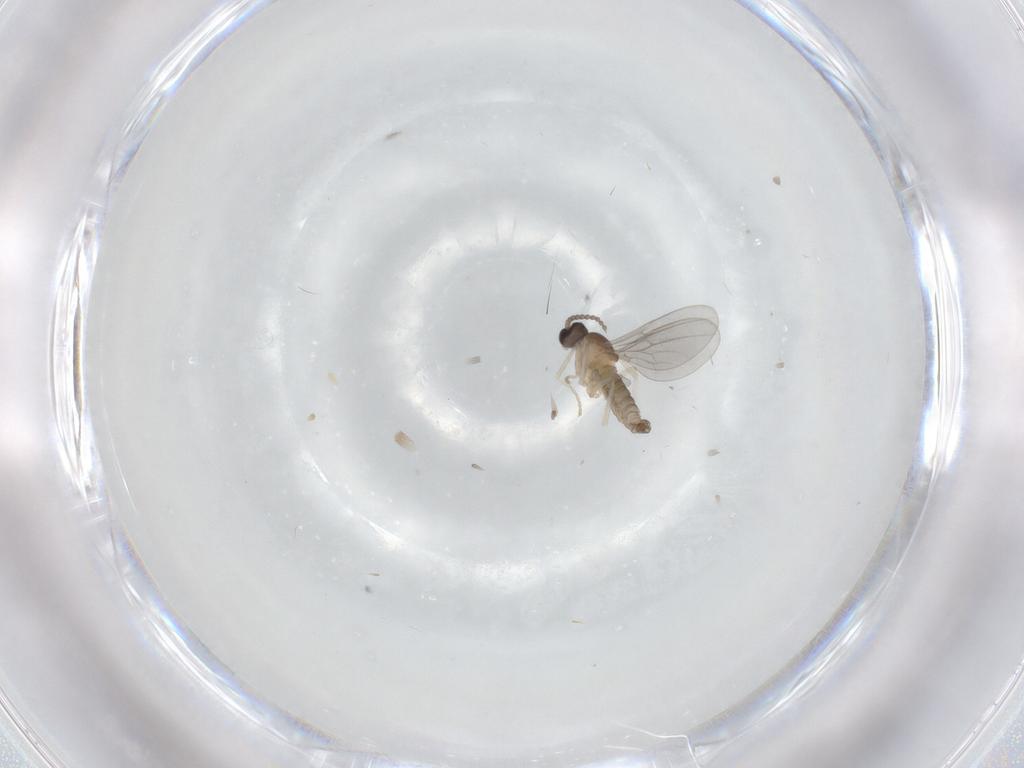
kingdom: Animalia
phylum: Arthropoda
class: Insecta
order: Diptera
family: Cecidomyiidae
